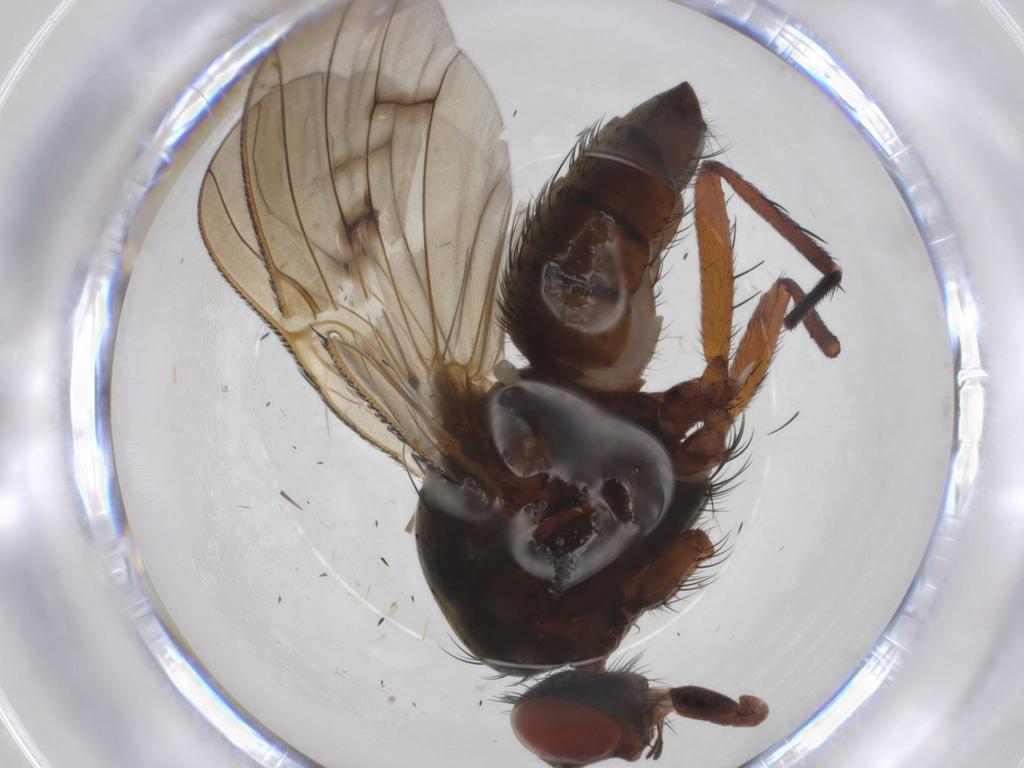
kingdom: Animalia
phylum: Arthropoda
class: Insecta
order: Diptera
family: Anthomyiidae
